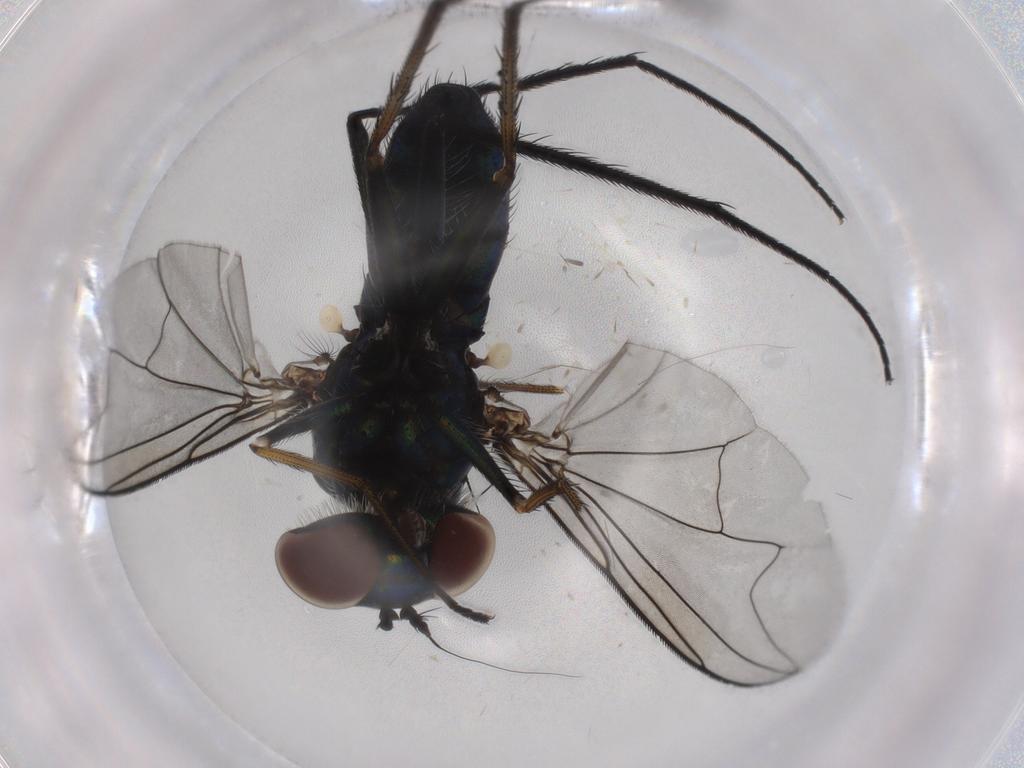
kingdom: Animalia
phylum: Arthropoda
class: Insecta
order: Diptera
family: Dolichopodidae
